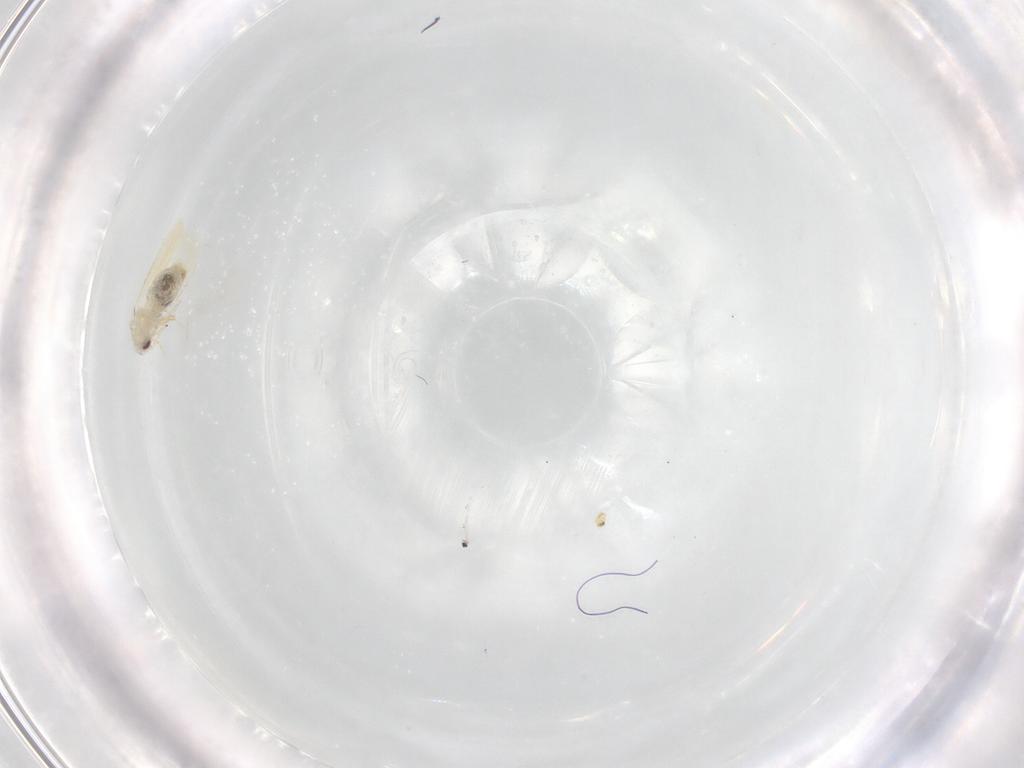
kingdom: Animalia
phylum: Arthropoda
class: Insecta
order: Hemiptera
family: Aleyrodidae
